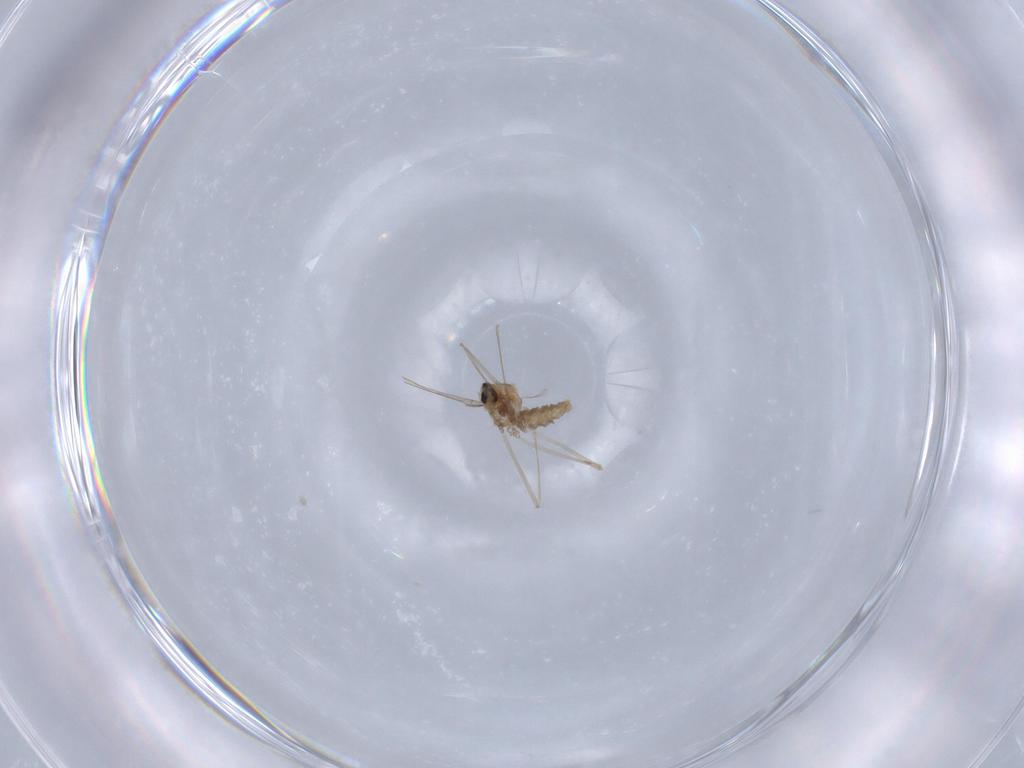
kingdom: Animalia
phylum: Arthropoda
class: Insecta
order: Diptera
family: Cecidomyiidae
